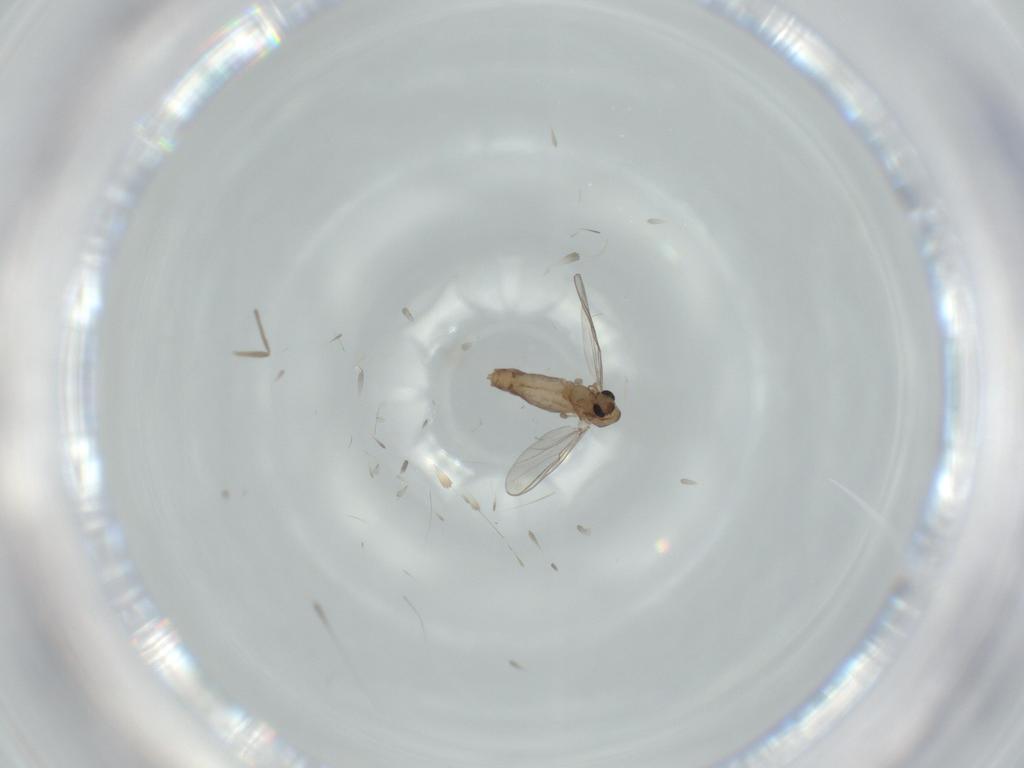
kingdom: Animalia
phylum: Arthropoda
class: Insecta
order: Diptera
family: Chironomidae
